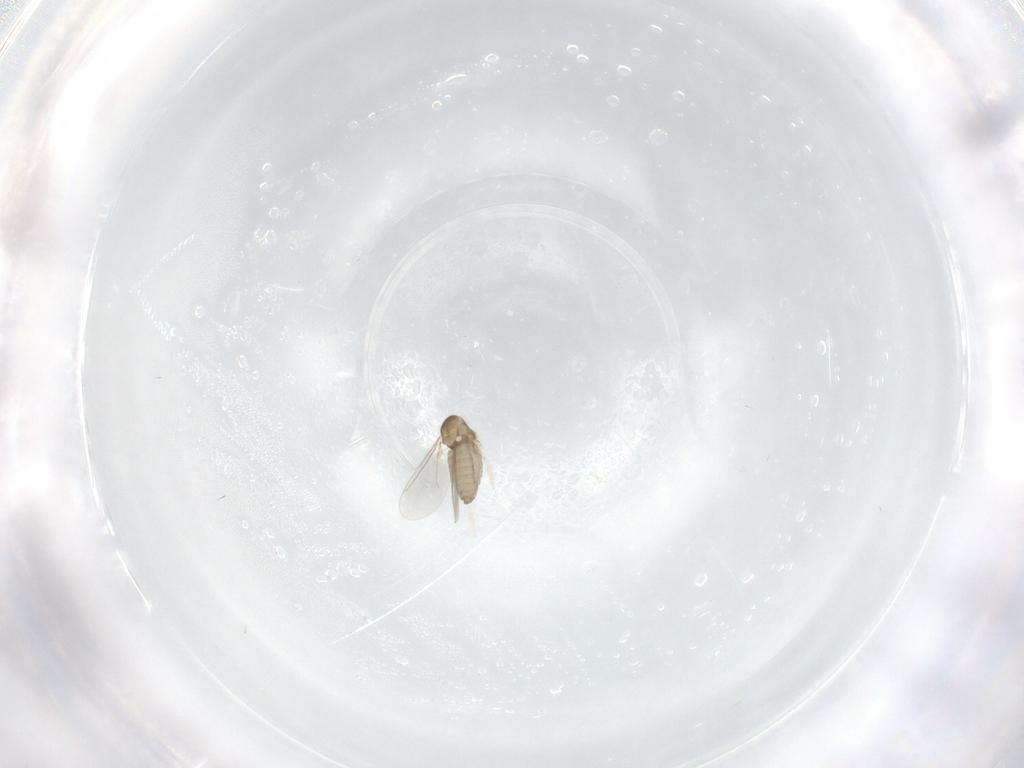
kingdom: Animalia
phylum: Arthropoda
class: Insecta
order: Diptera
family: Cecidomyiidae
